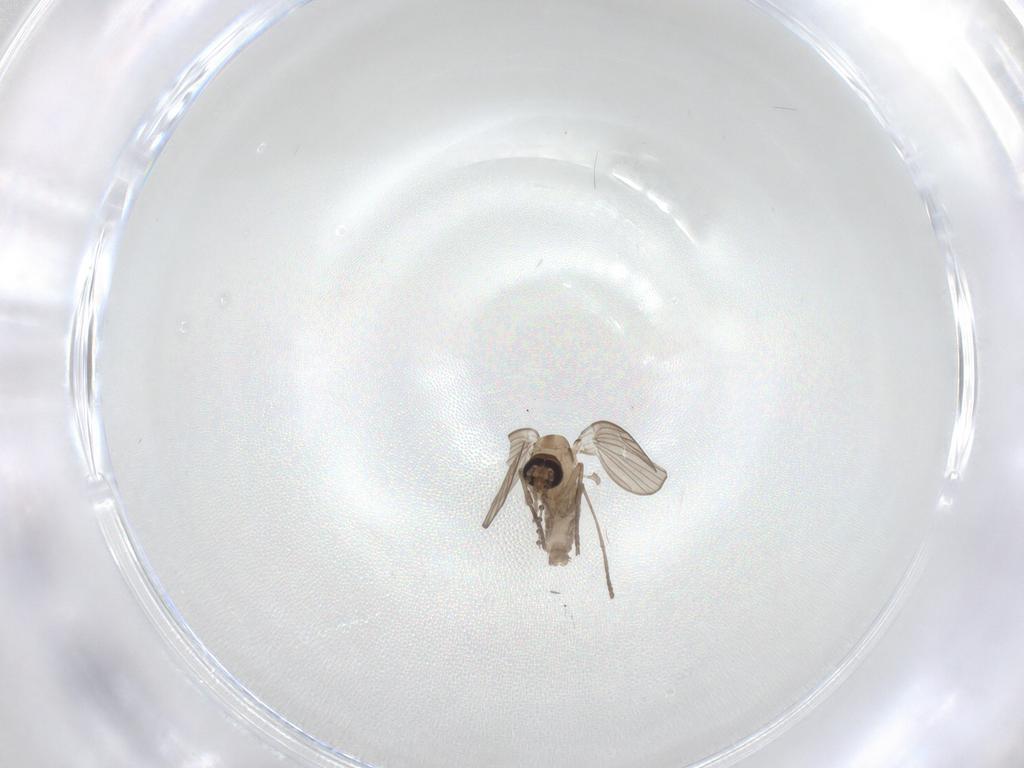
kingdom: Animalia
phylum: Arthropoda
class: Insecta
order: Diptera
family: Psychodidae
